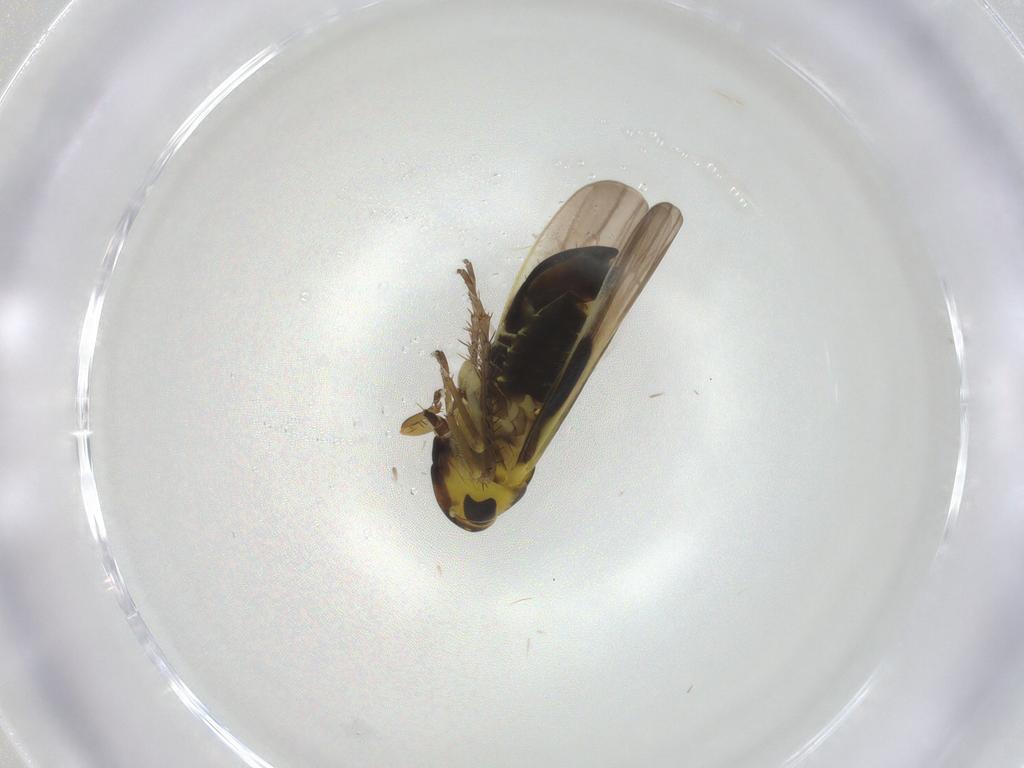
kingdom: Animalia
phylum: Arthropoda
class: Insecta
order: Hemiptera
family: Cicadellidae
